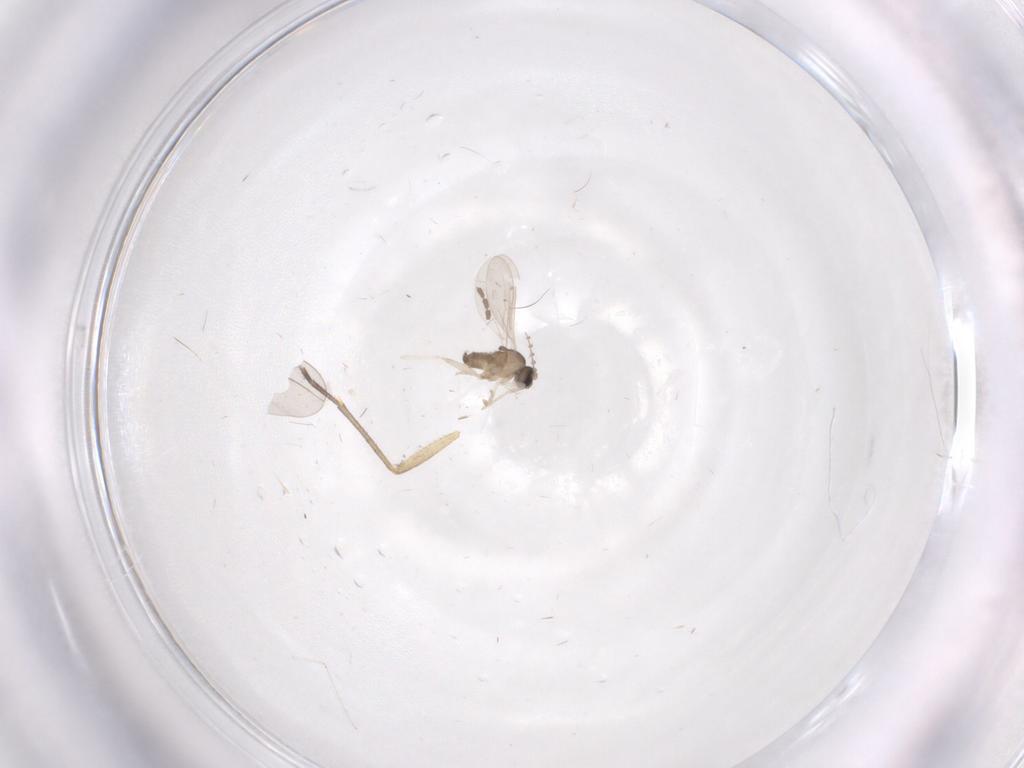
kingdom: Animalia
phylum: Arthropoda
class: Insecta
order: Diptera
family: Sciaridae
